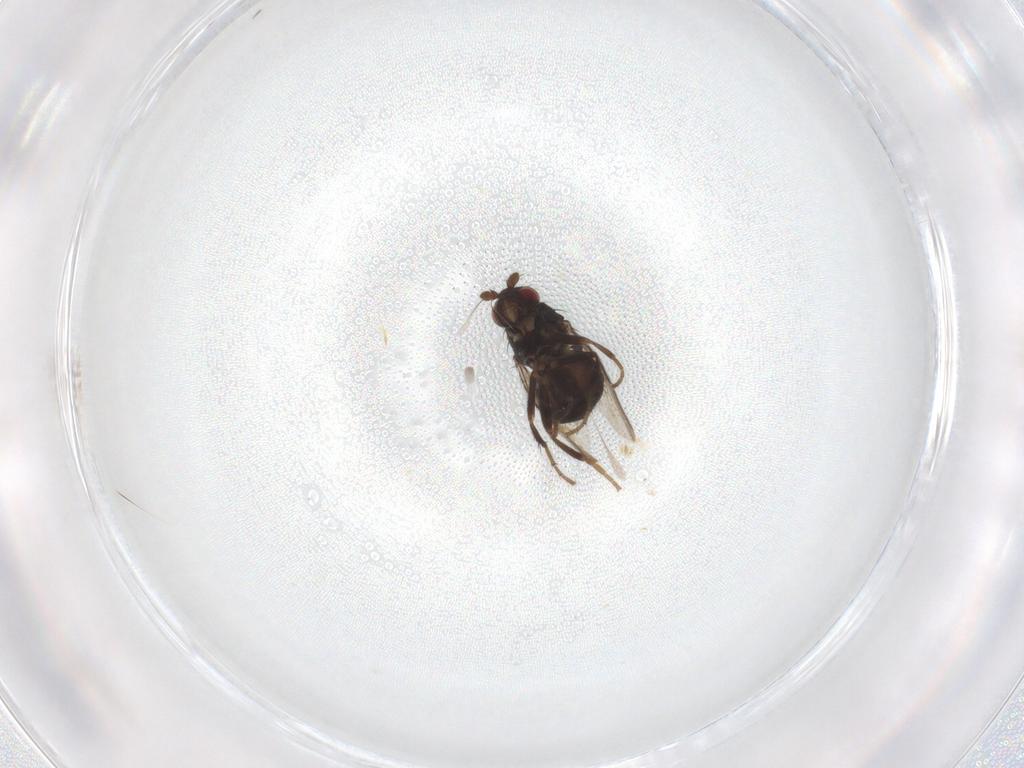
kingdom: Animalia
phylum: Arthropoda
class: Insecta
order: Diptera
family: Sphaeroceridae
